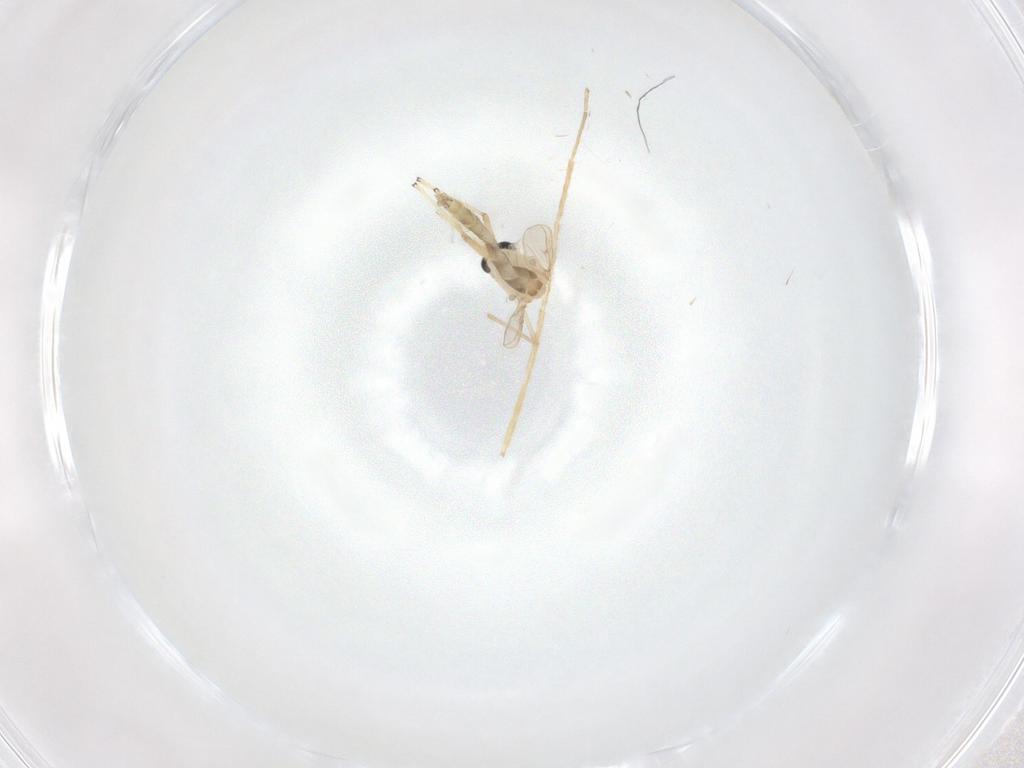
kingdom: Animalia
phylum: Arthropoda
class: Insecta
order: Diptera
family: Chironomidae
